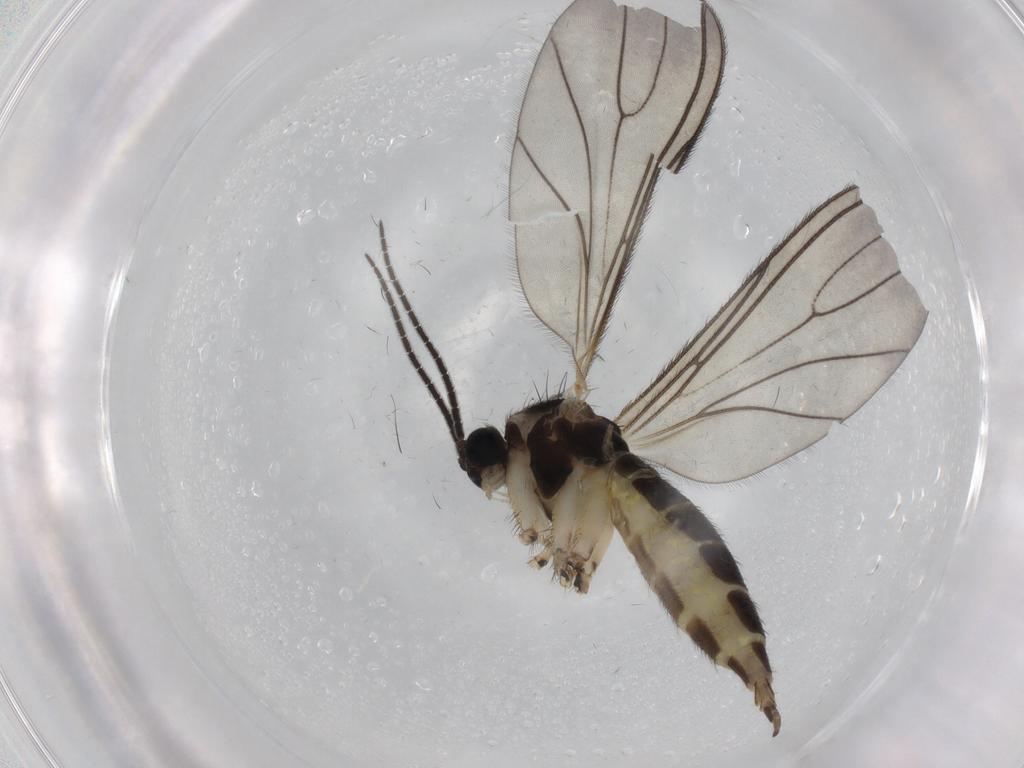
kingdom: Animalia
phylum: Arthropoda
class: Insecta
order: Diptera
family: Sciaridae
